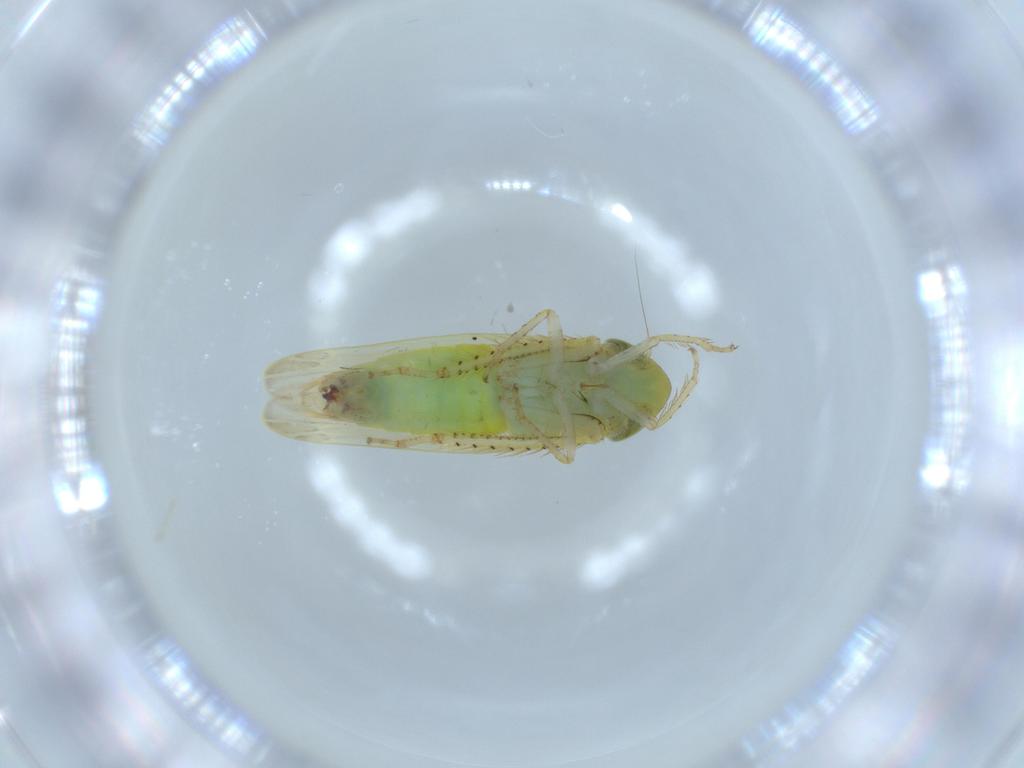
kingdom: Animalia
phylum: Arthropoda
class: Insecta
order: Hemiptera
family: Cicadellidae
